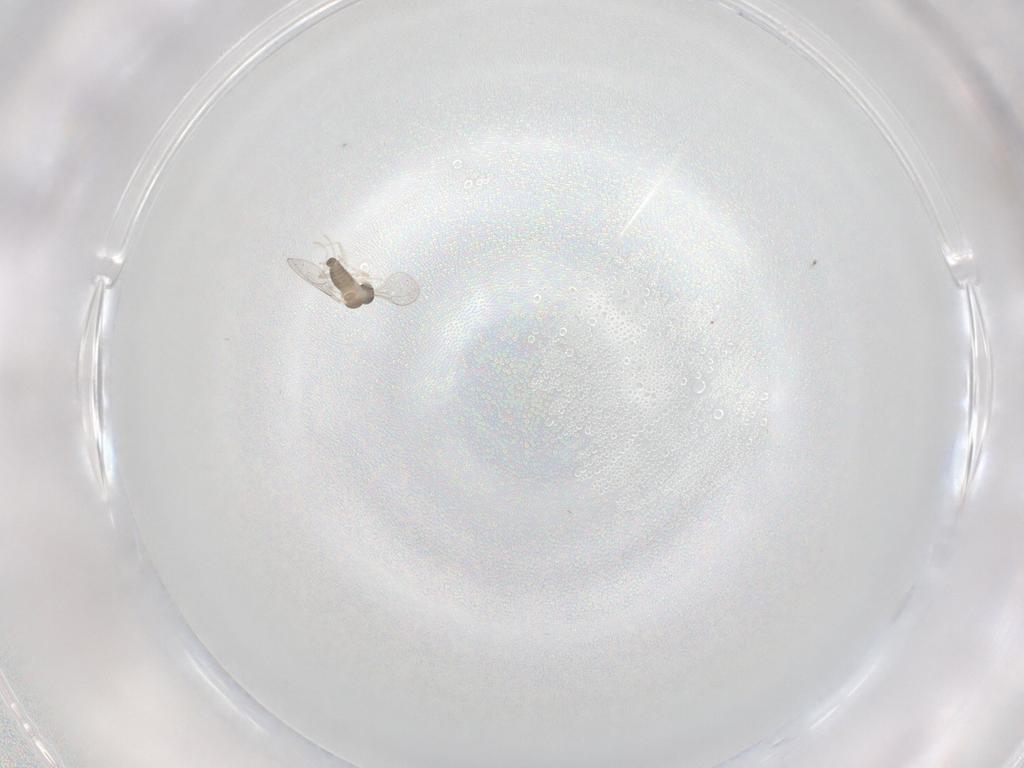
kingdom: Animalia
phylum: Arthropoda
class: Insecta
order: Diptera
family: Cecidomyiidae
